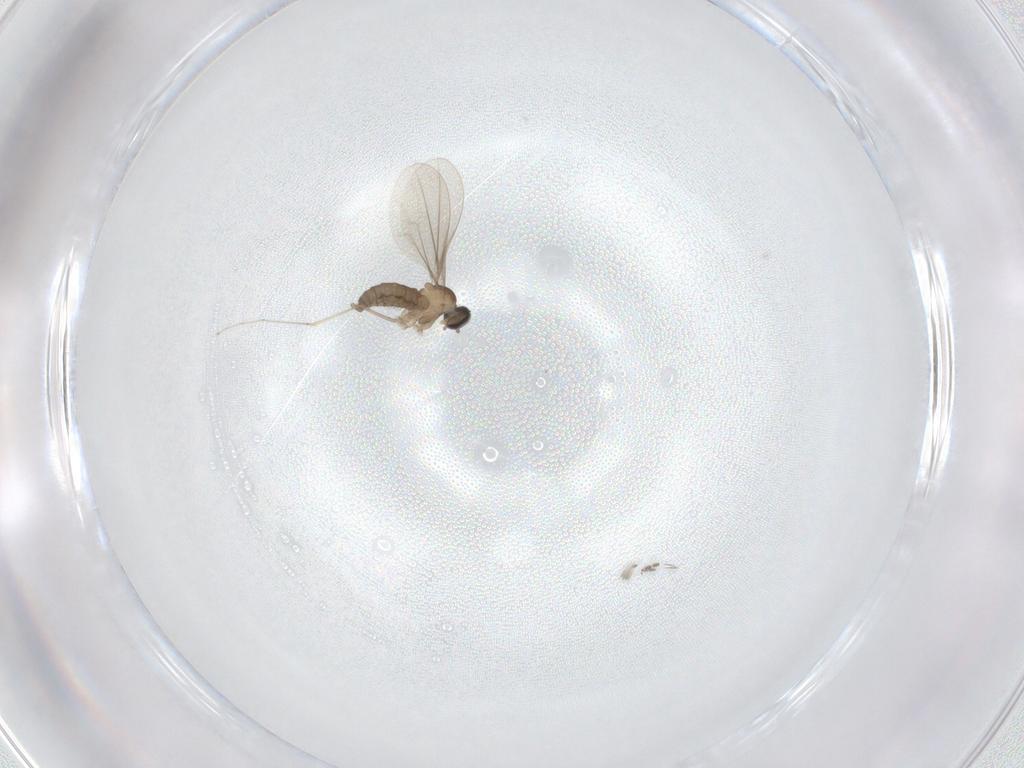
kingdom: Animalia
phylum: Arthropoda
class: Insecta
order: Diptera
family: Cecidomyiidae
